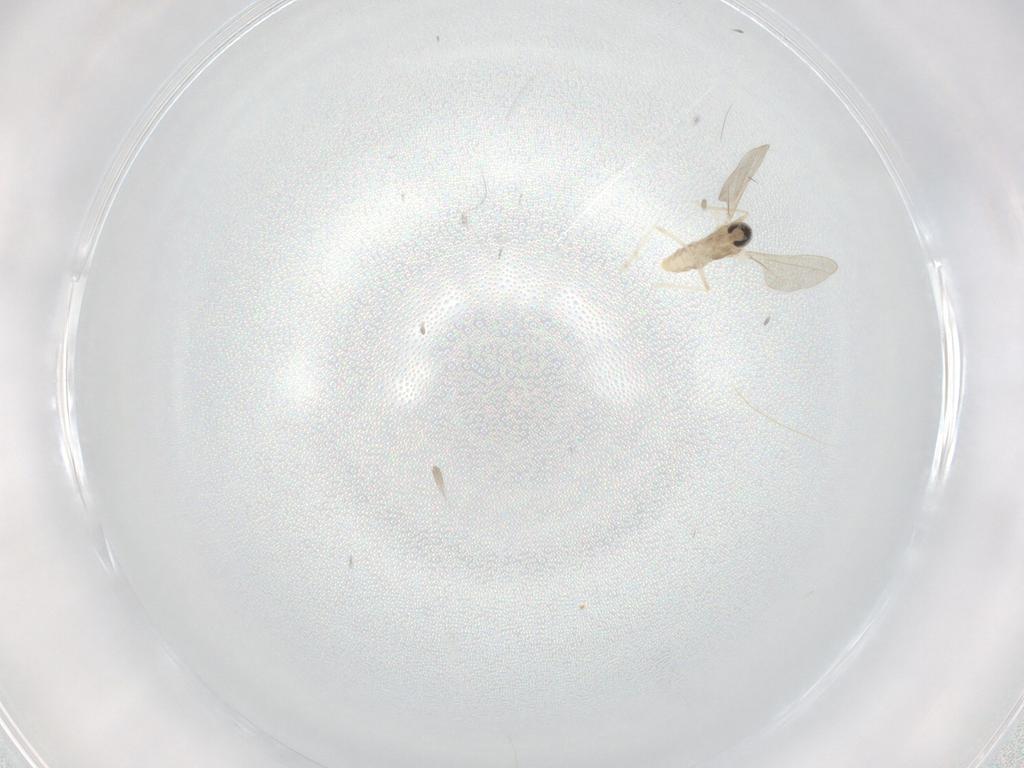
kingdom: Animalia
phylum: Arthropoda
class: Insecta
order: Diptera
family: Cecidomyiidae
